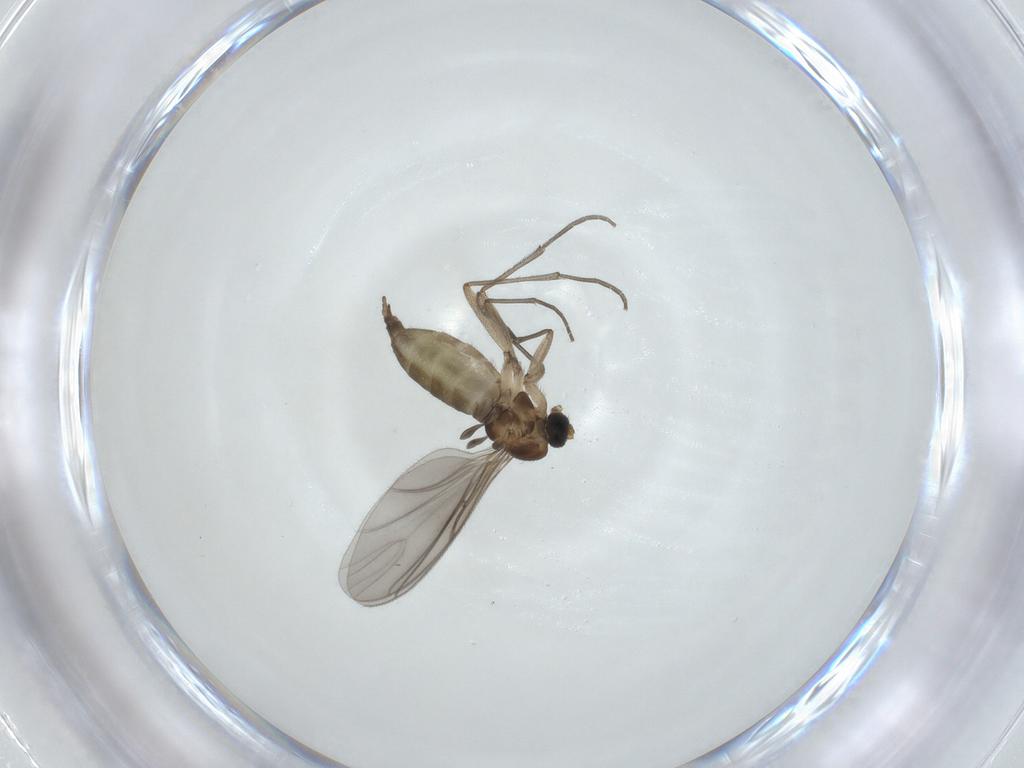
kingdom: Animalia
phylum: Arthropoda
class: Insecta
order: Diptera
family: Sciaridae
